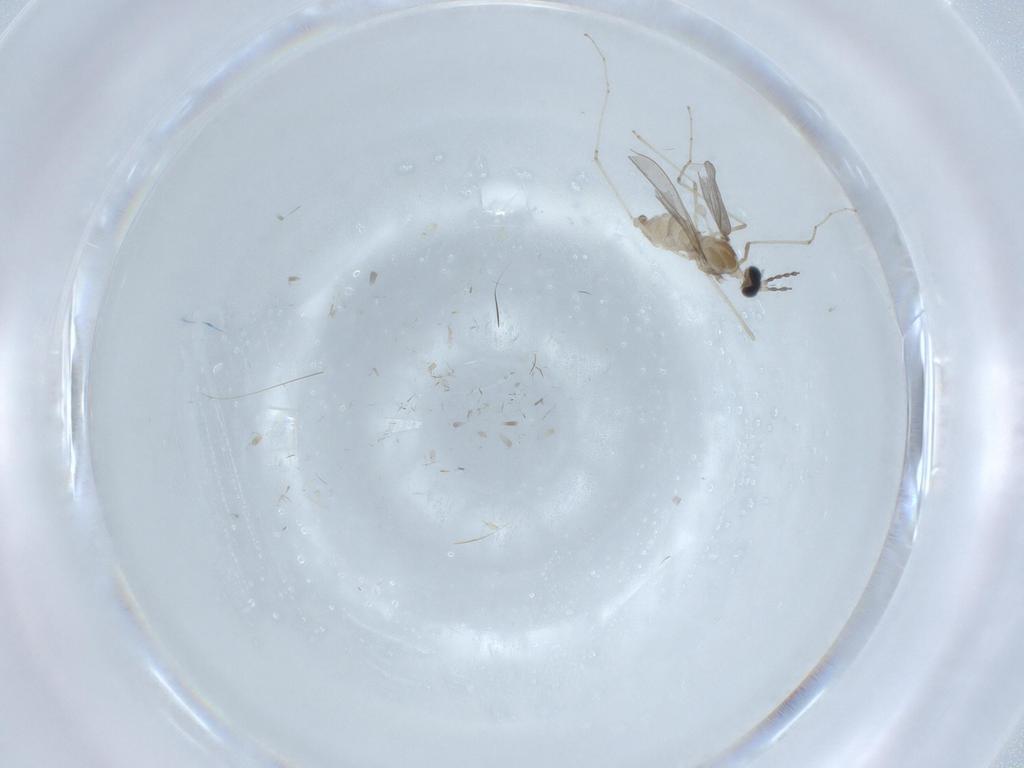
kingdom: Animalia
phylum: Arthropoda
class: Insecta
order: Diptera
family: Cecidomyiidae
